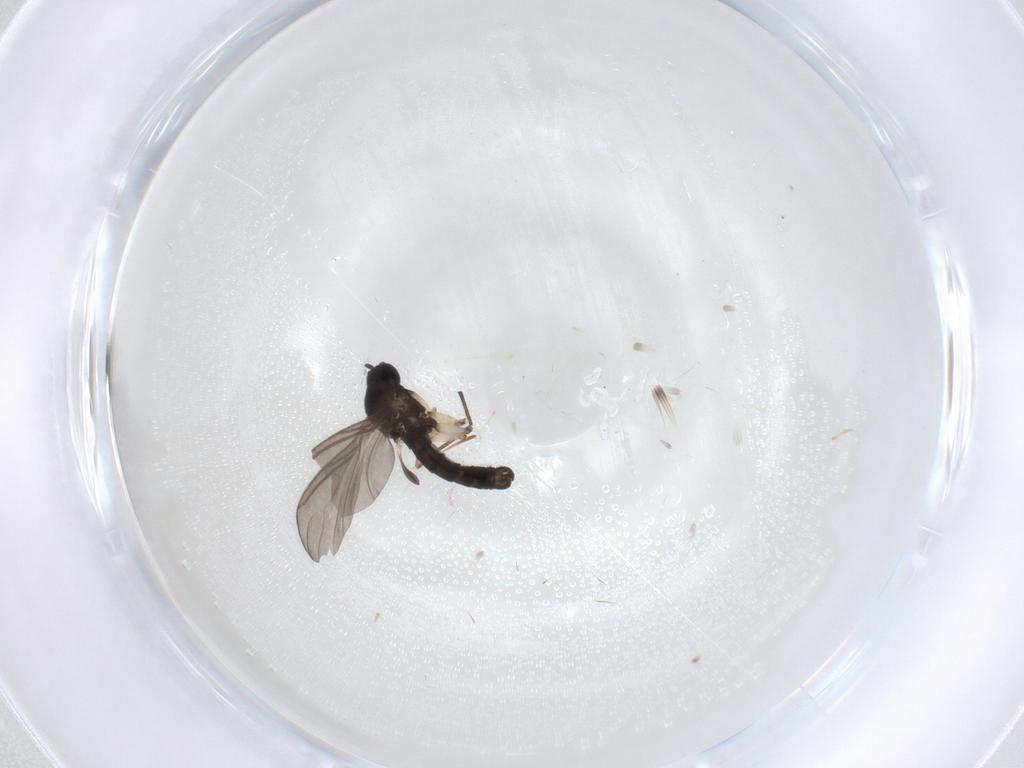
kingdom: Animalia
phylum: Arthropoda
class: Insecta
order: Diptera
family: Sciaridae
